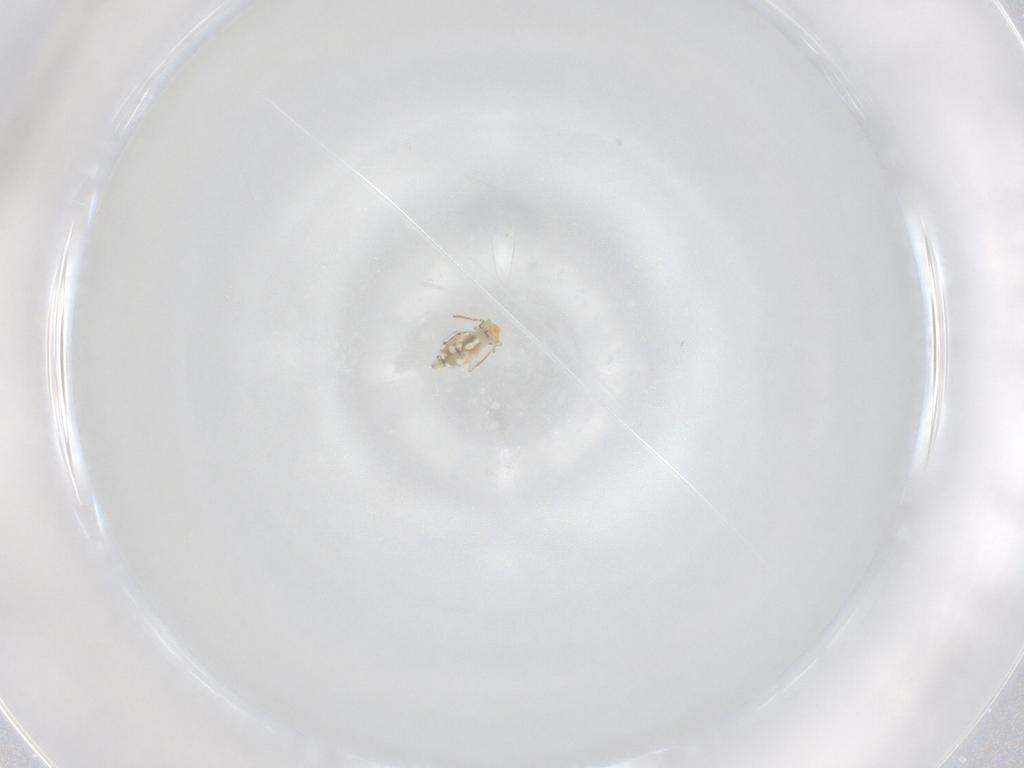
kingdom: Animalia
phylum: Arthropoda
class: Collembola
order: Symphypleona
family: Bourletiellidae
